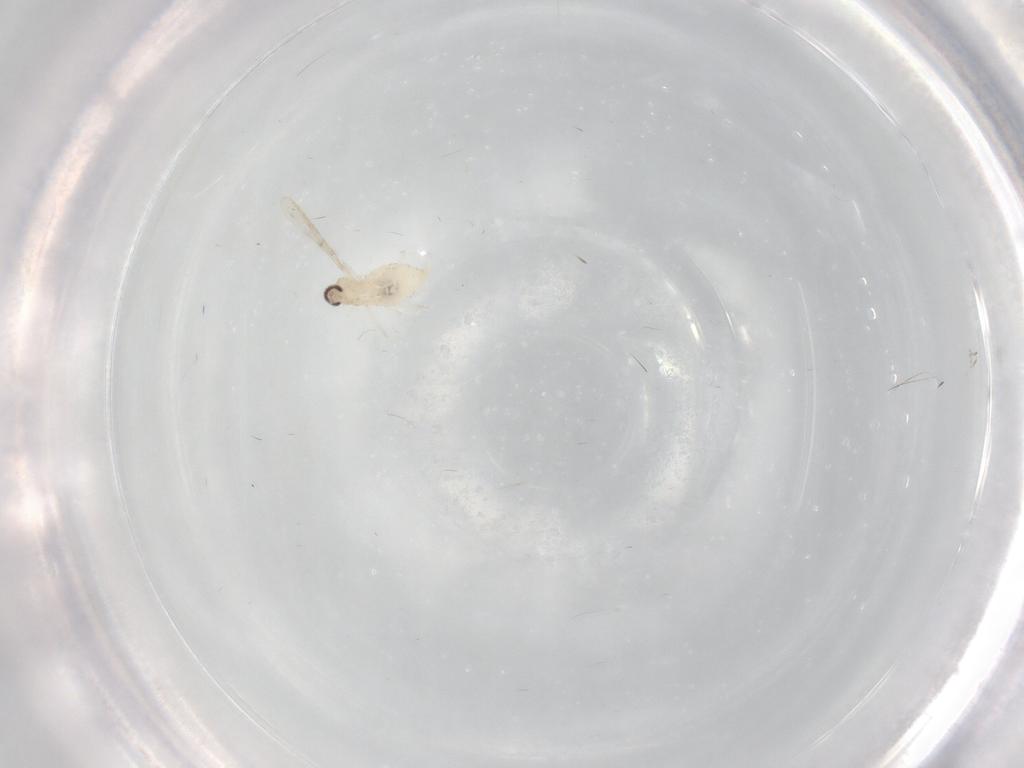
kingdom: Animalia
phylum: Arthropoda
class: Insecta
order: Diptera
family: Cecidomyiidae
